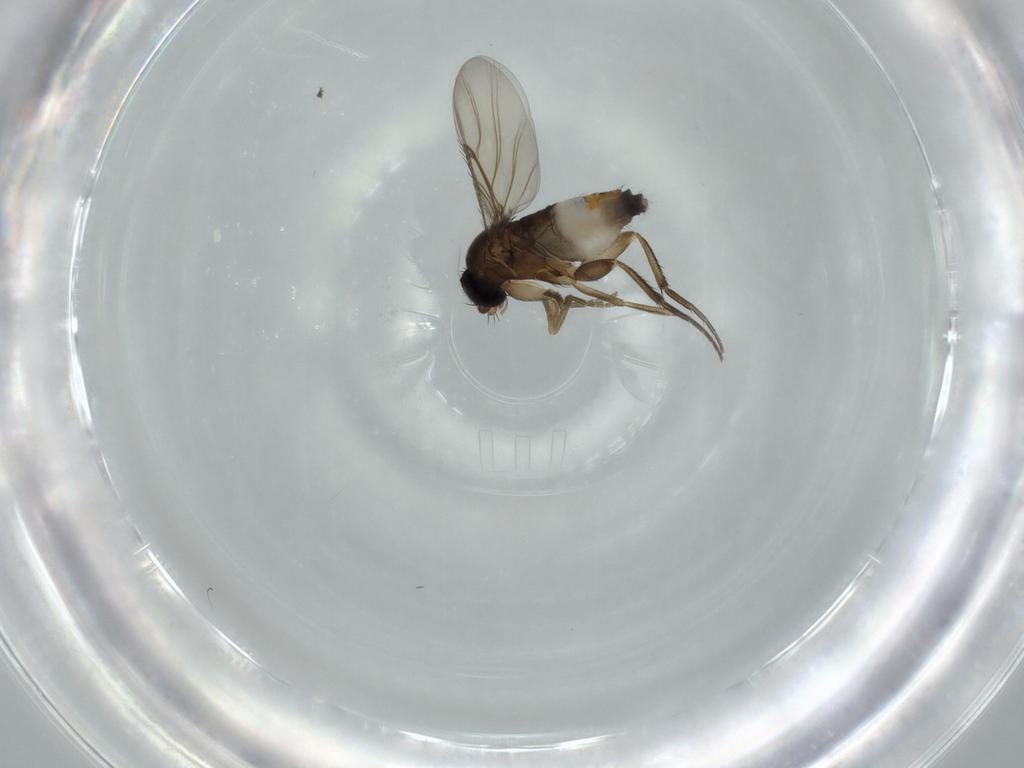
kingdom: Animalia
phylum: Arthropoda
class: Insecta
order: Diptera
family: Phoridae
